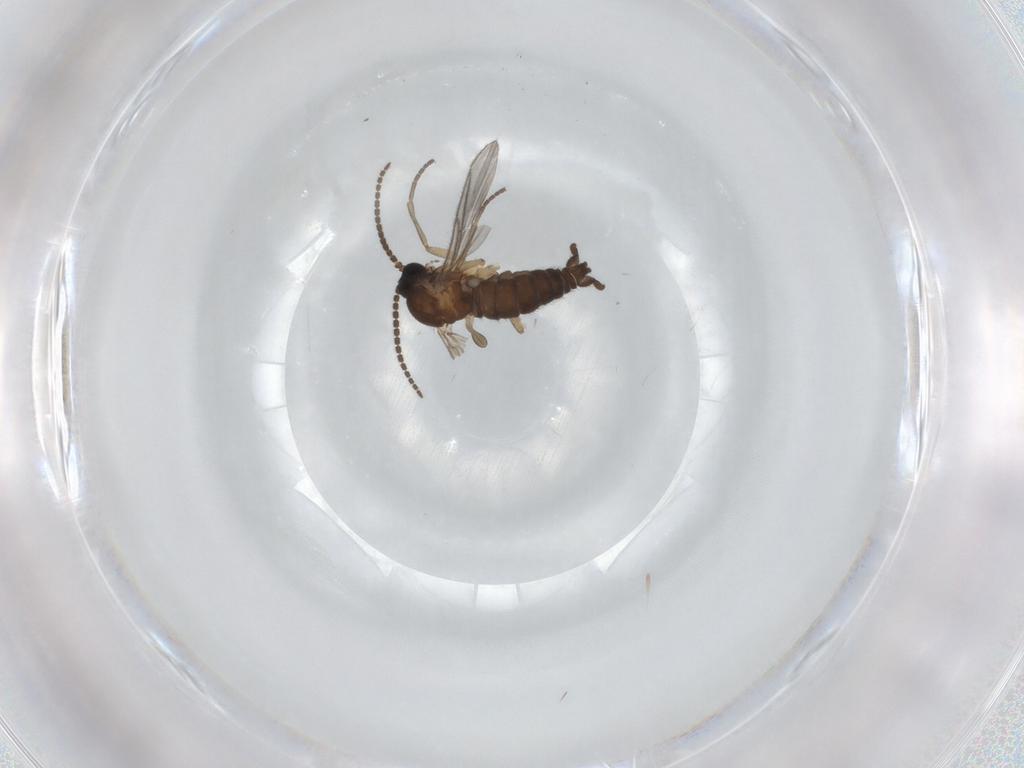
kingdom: Animalia
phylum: Arthropoda
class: Insecta
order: Diptera
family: Sciaridae
